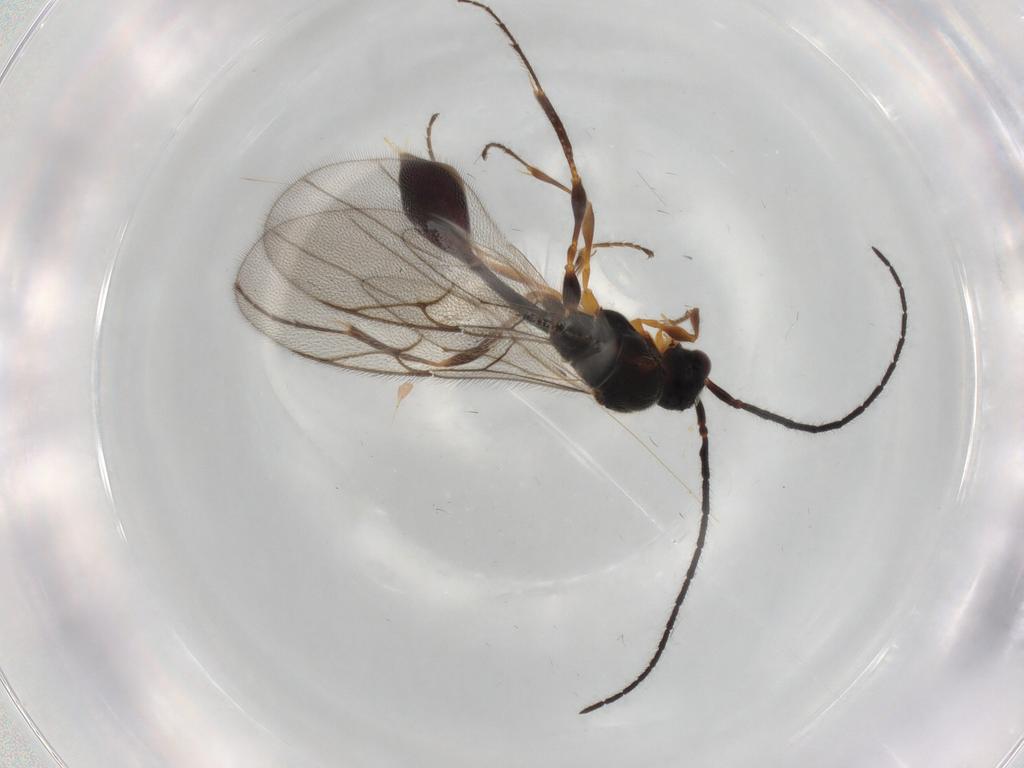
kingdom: Animalia
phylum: Arthropoda
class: Insecta
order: Hymenoptera
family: Diapriidae
